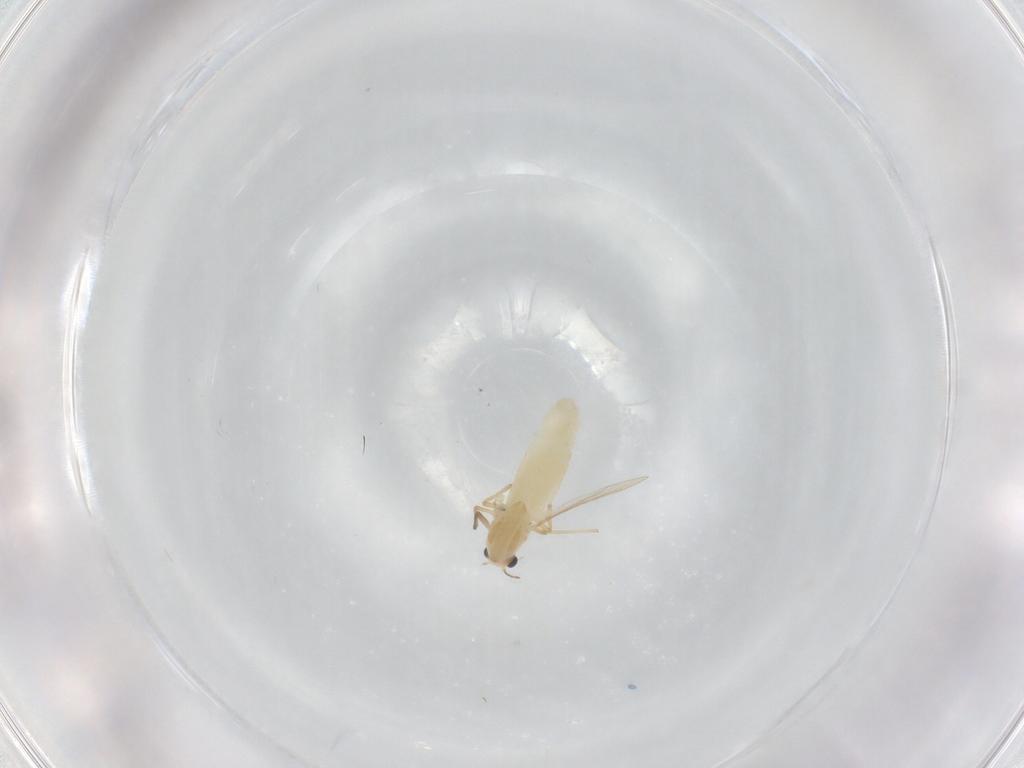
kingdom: Animalia
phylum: Arthropoda
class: Insecta
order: Diptera
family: Chironomidae
